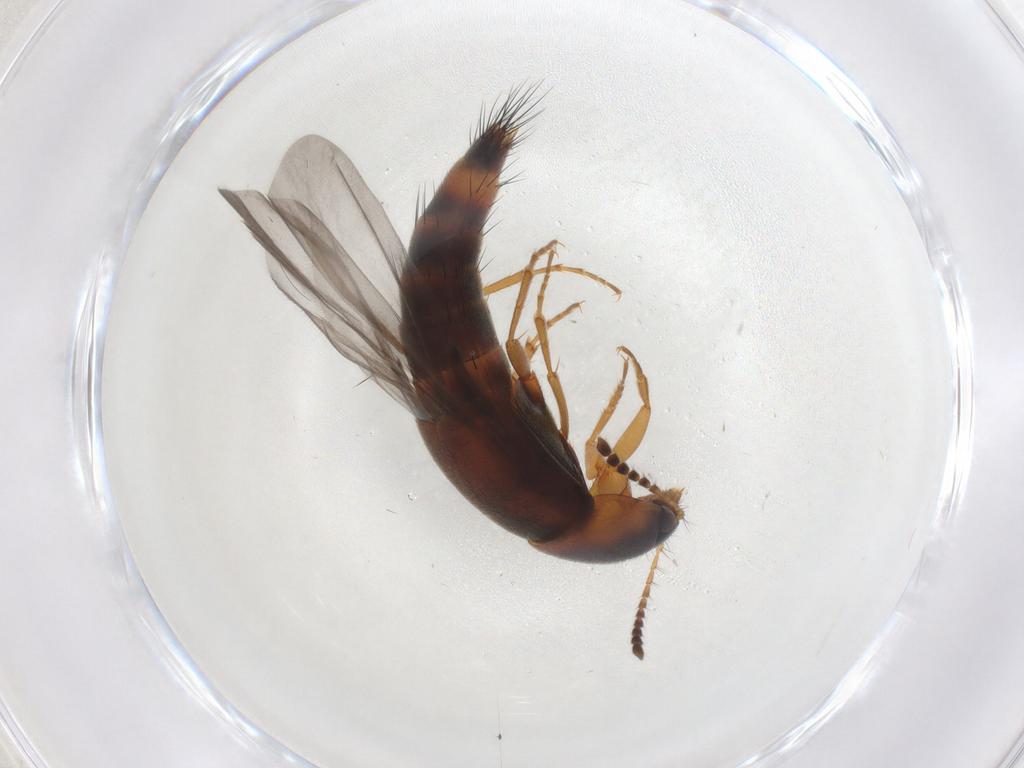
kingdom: Animalia
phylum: Arthropoda
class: Insecta
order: Coleoptera
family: Staphylinidae
